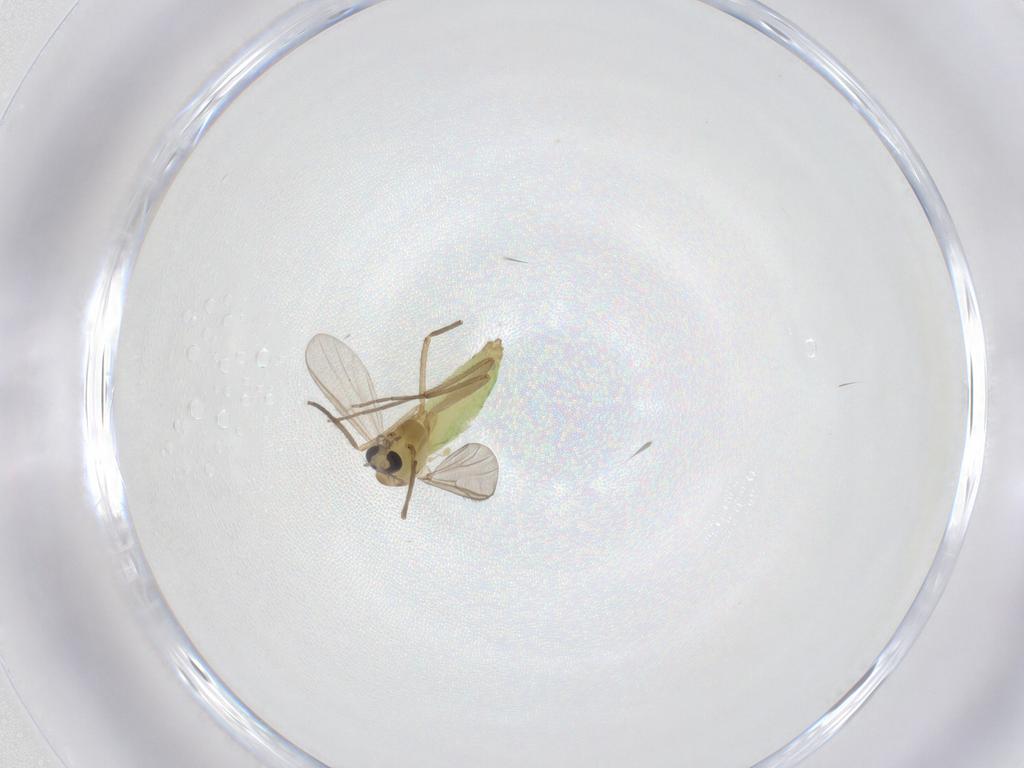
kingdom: Animalia
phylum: Arthropoda
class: Insecta
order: Diptera
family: Chironomidae
